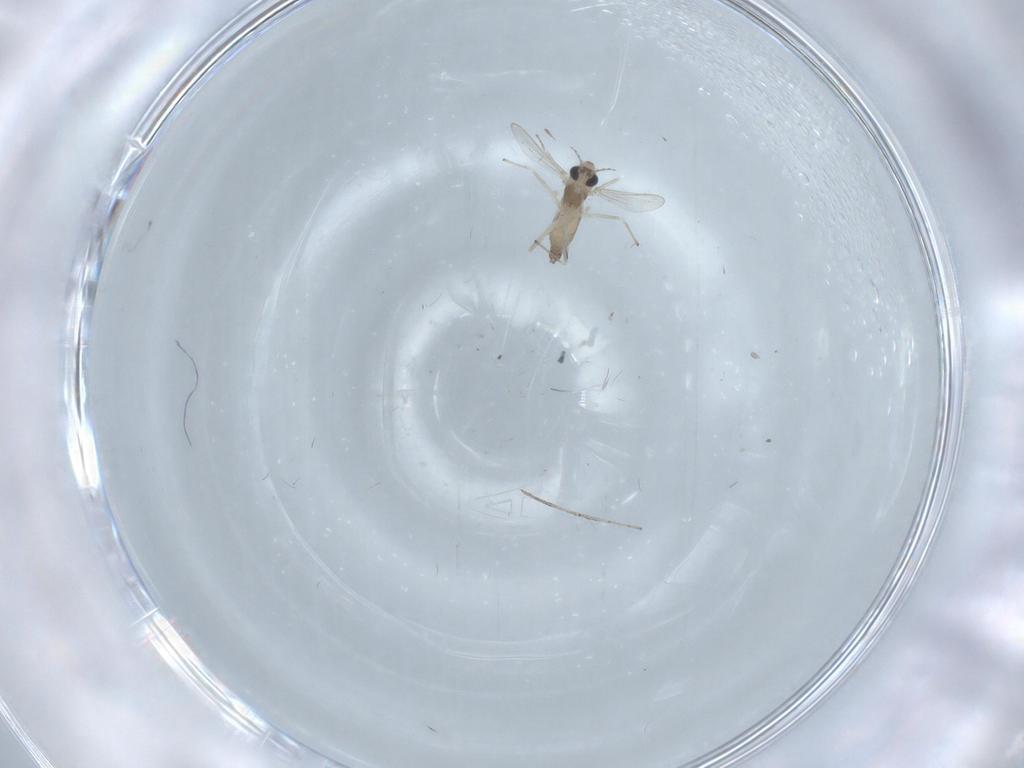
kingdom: Animalia
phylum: Arthropoda
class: Insecta
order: Diptera
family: Chironomidae
